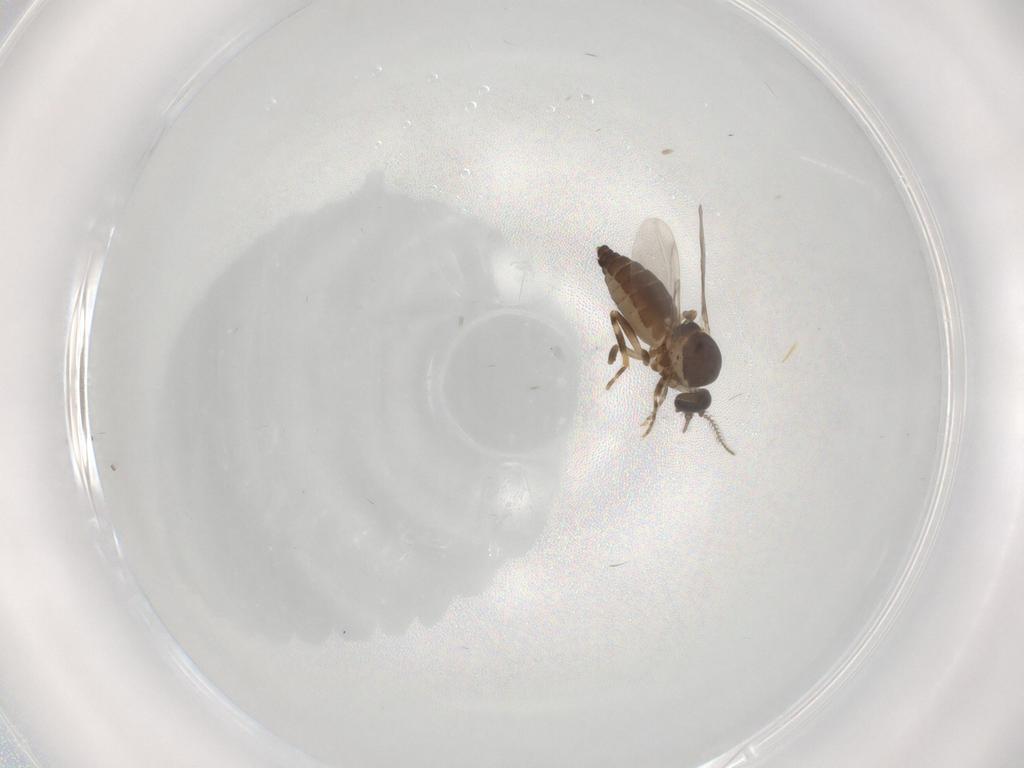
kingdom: Animalia
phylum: Arthropoda
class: Insecta
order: Diptera
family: Ceratopogonidae
